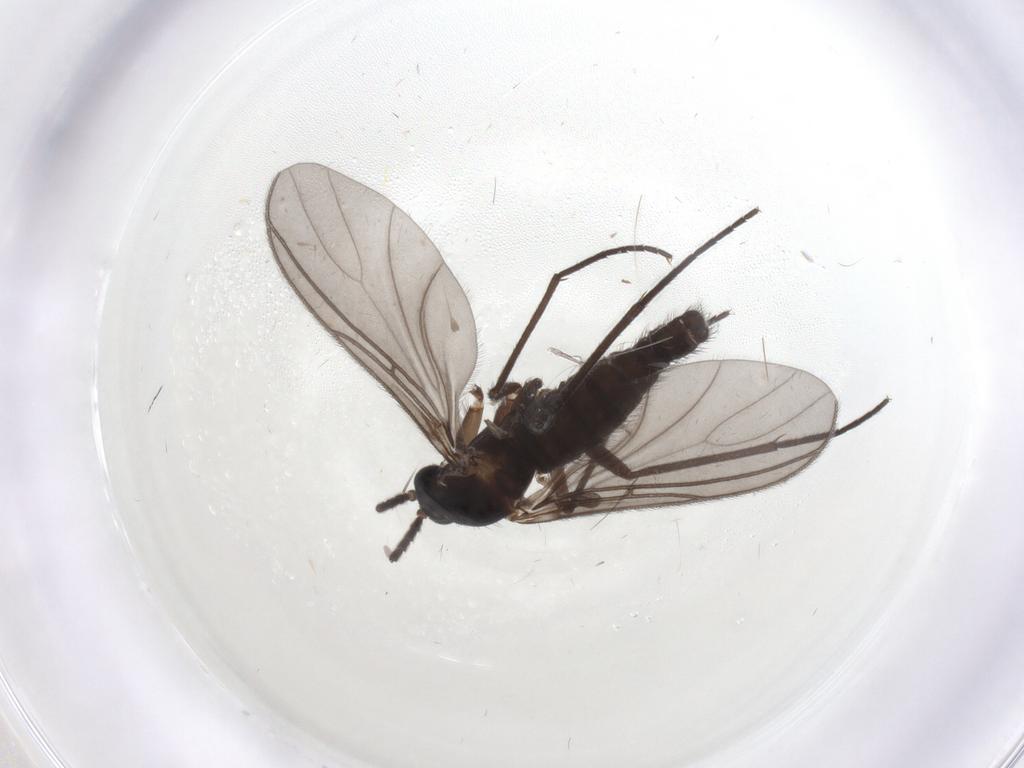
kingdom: Animalia
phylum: Arthropoda
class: Insecta
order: Diptera
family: Sciaridae
